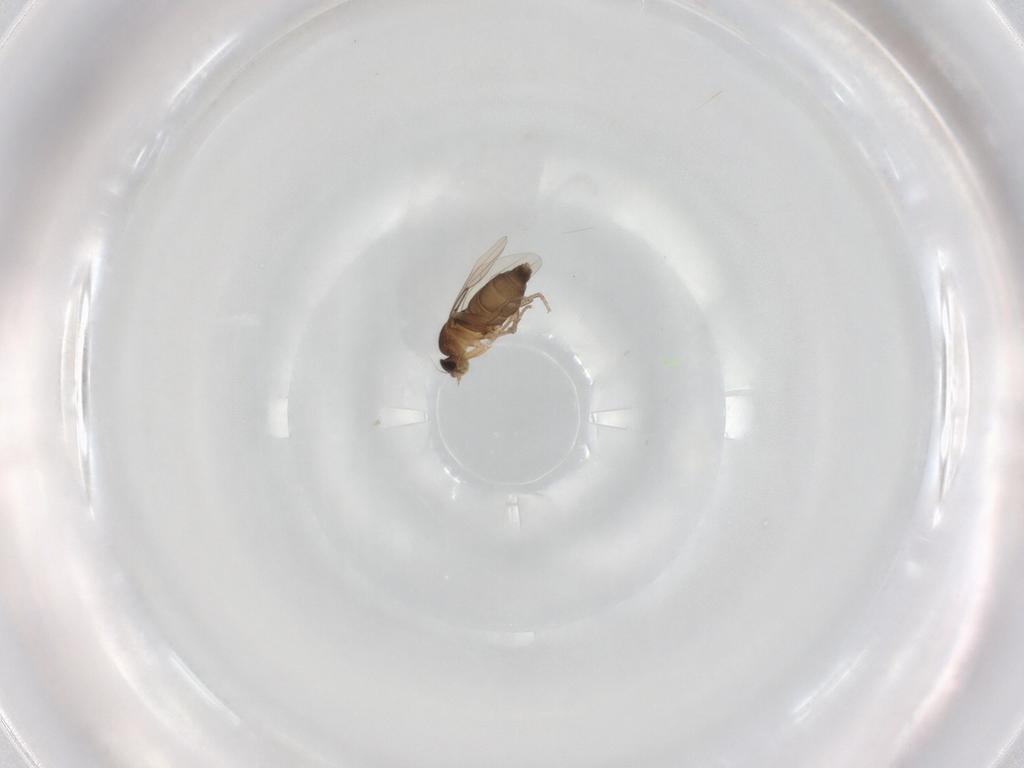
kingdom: Animalia
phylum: Arthropoda
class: Insecta
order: Diptera
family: Phoridae
